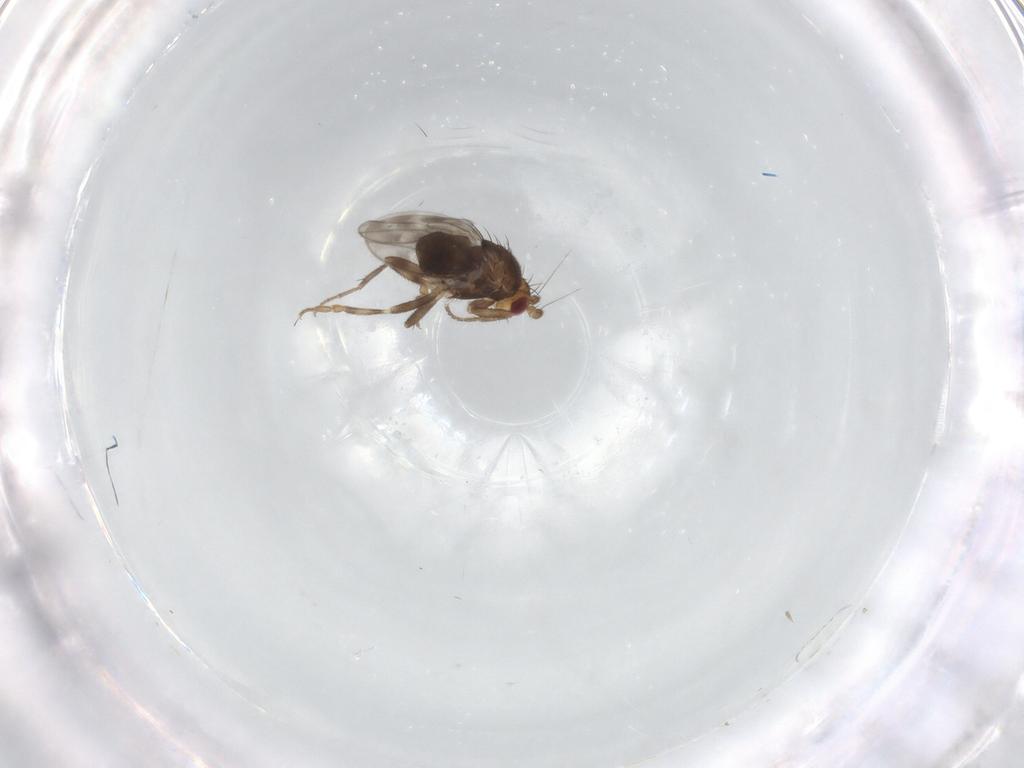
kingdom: Animalia
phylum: Arthropoda
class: Insecta
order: Diptera
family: Sphaeroceridae
